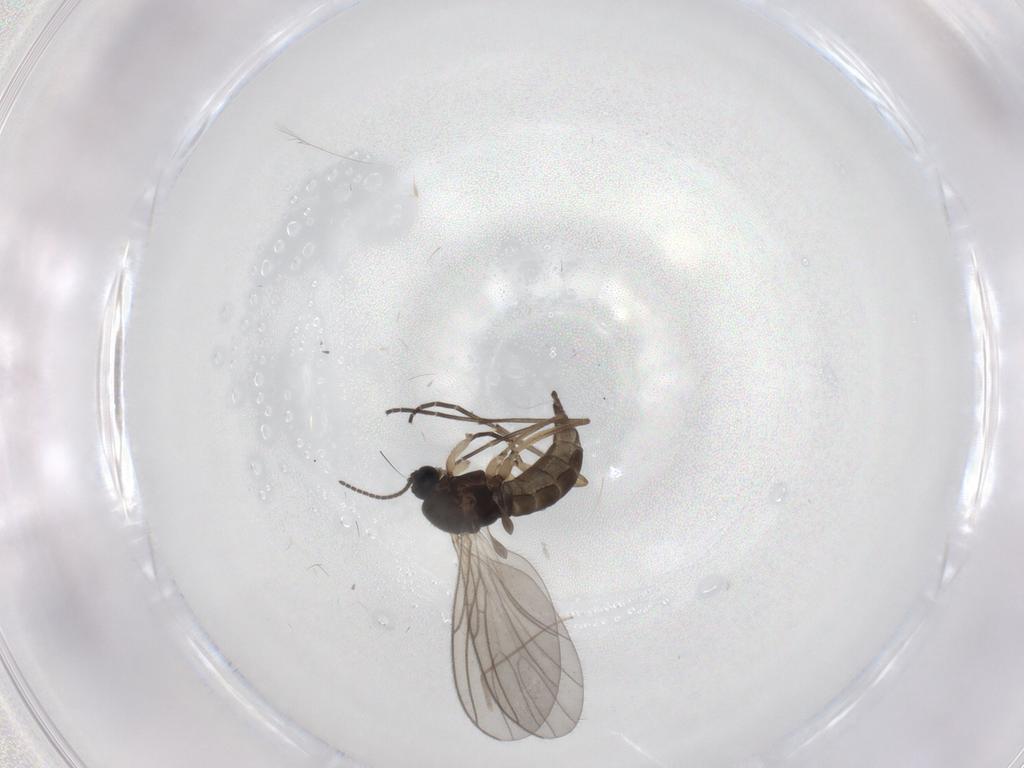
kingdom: Animalia
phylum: Arthropoda
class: Insecta
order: Diptera
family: Sciaridae
